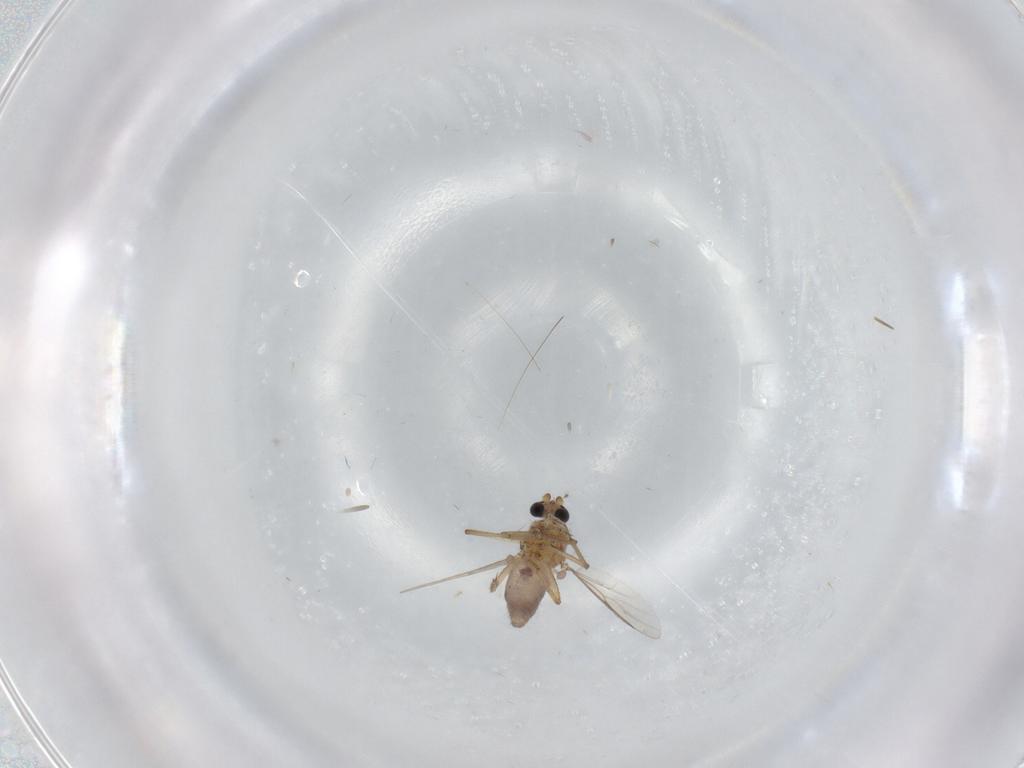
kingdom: Animalia
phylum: Arthropoda
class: Insecta
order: Diptera
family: Ceratopogonidae
